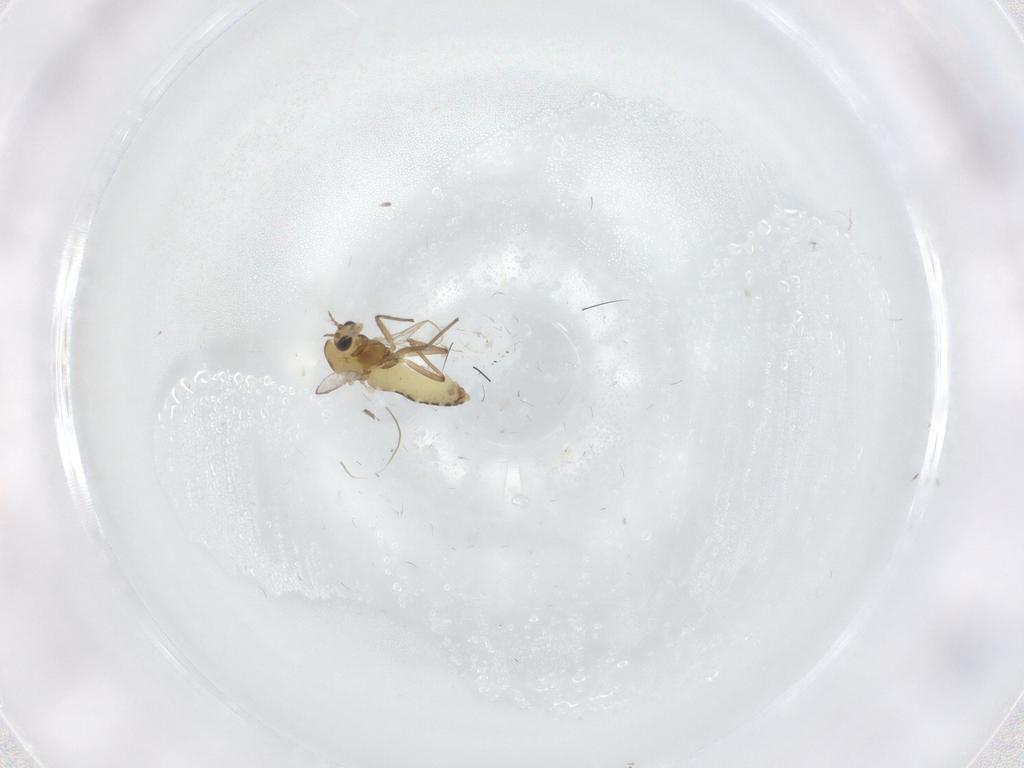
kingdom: Animalia
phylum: Arthropoda
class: Insecta
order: Diptera
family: Chironomidae
